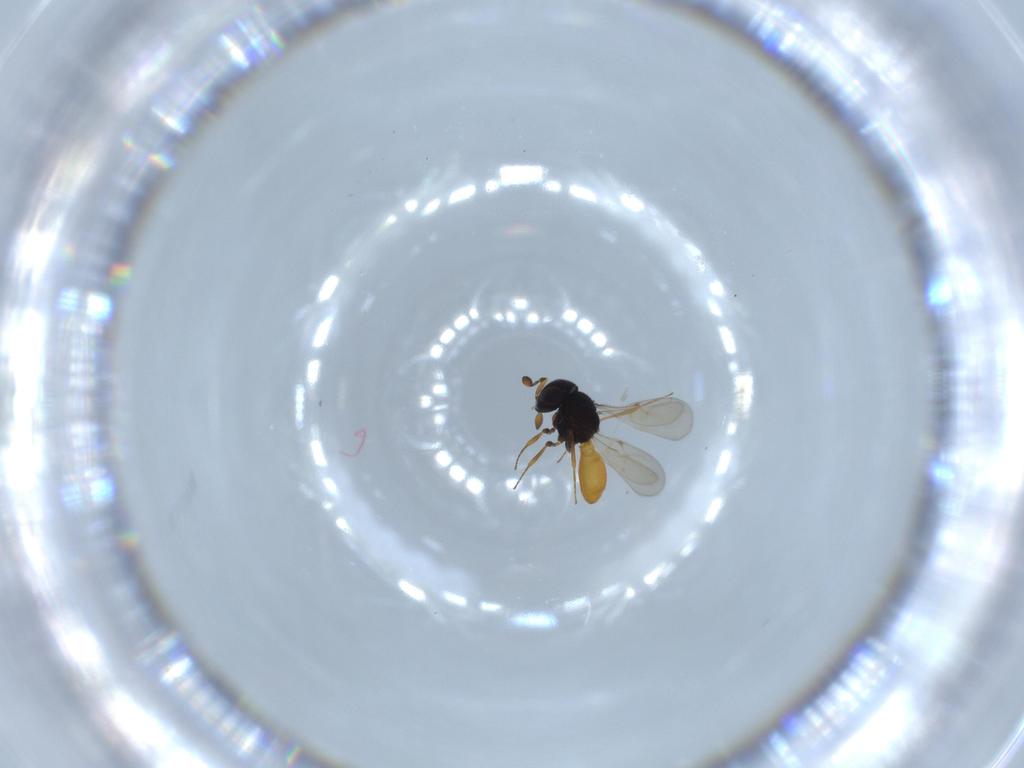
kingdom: Animalia
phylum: Arthropoda
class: Insecta
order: Hymenoptera
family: Scelionidae
